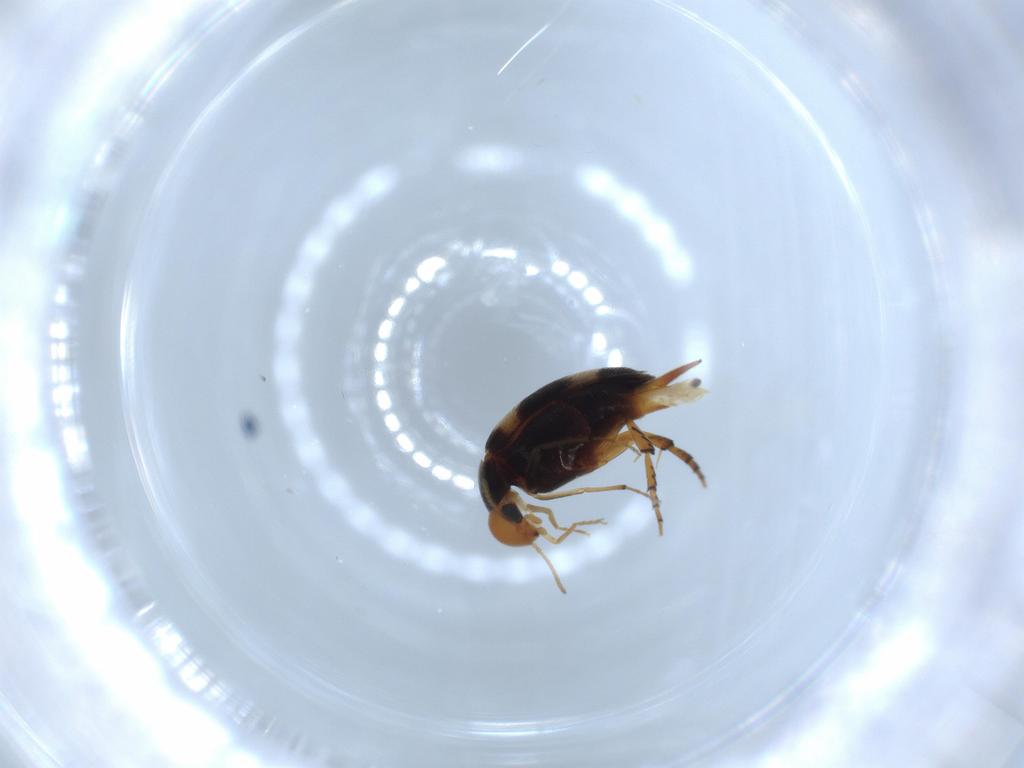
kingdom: Animalia
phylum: Arthropoda
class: Insecta
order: Coleoptera
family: Mordellidae
